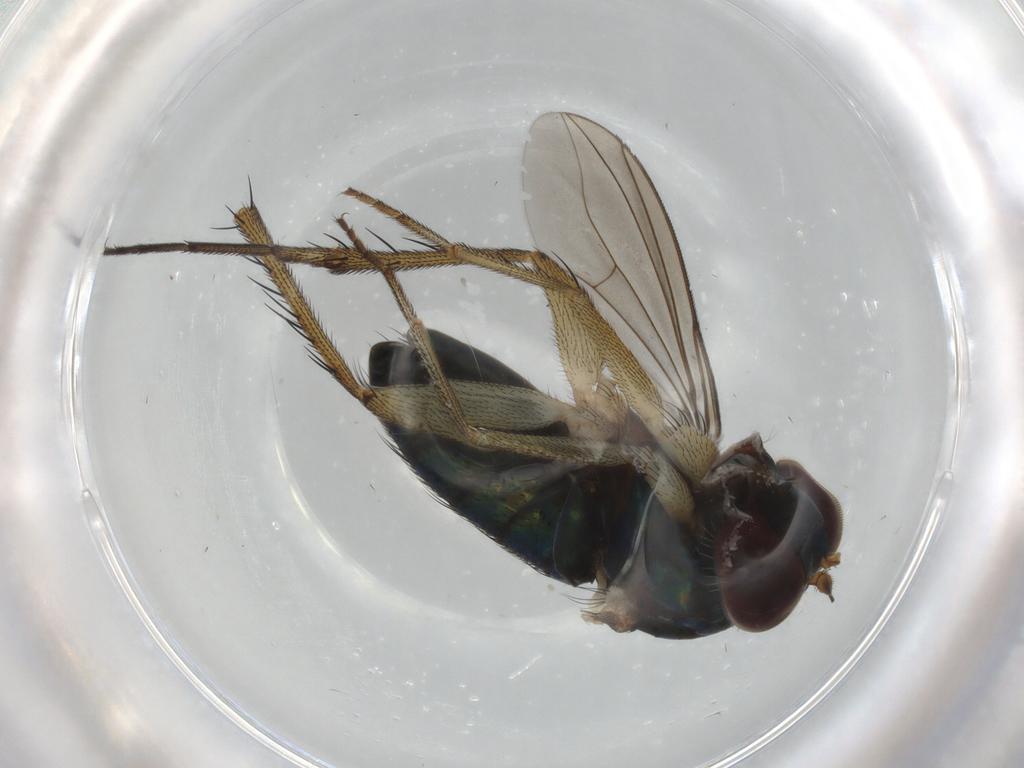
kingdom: Animalia
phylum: Arthropoda
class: Insecta
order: Diptera
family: Dolichopodidae
